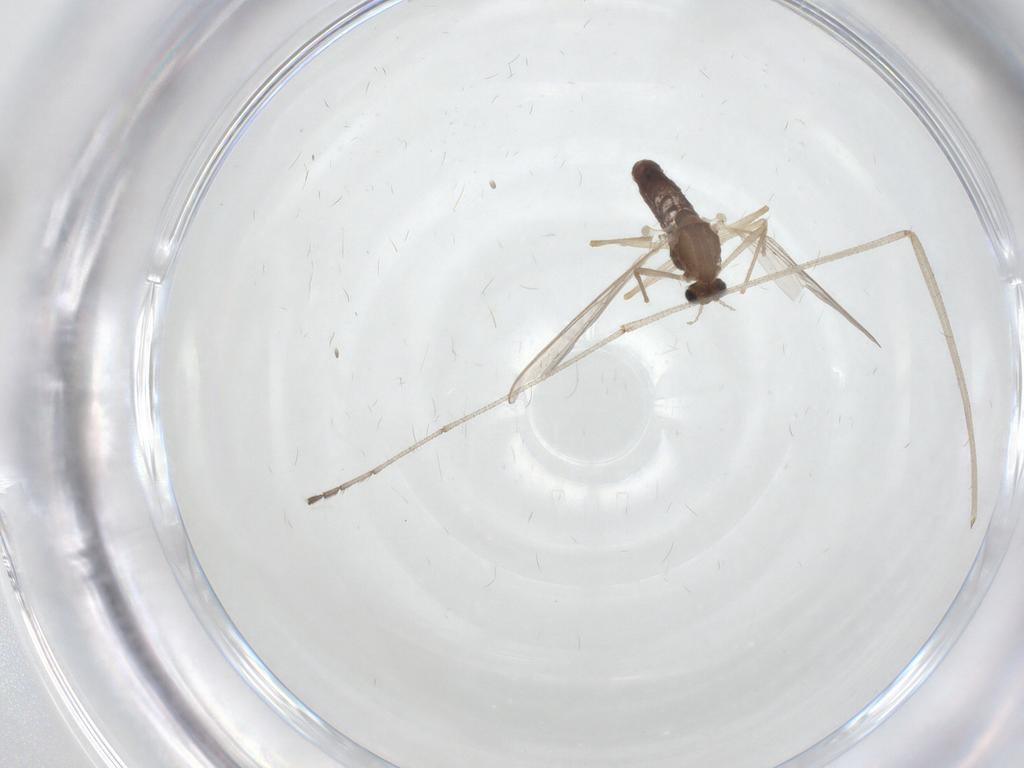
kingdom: Animalia
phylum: Arthropoda
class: Insecta
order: Diptera
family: Chironomidae
